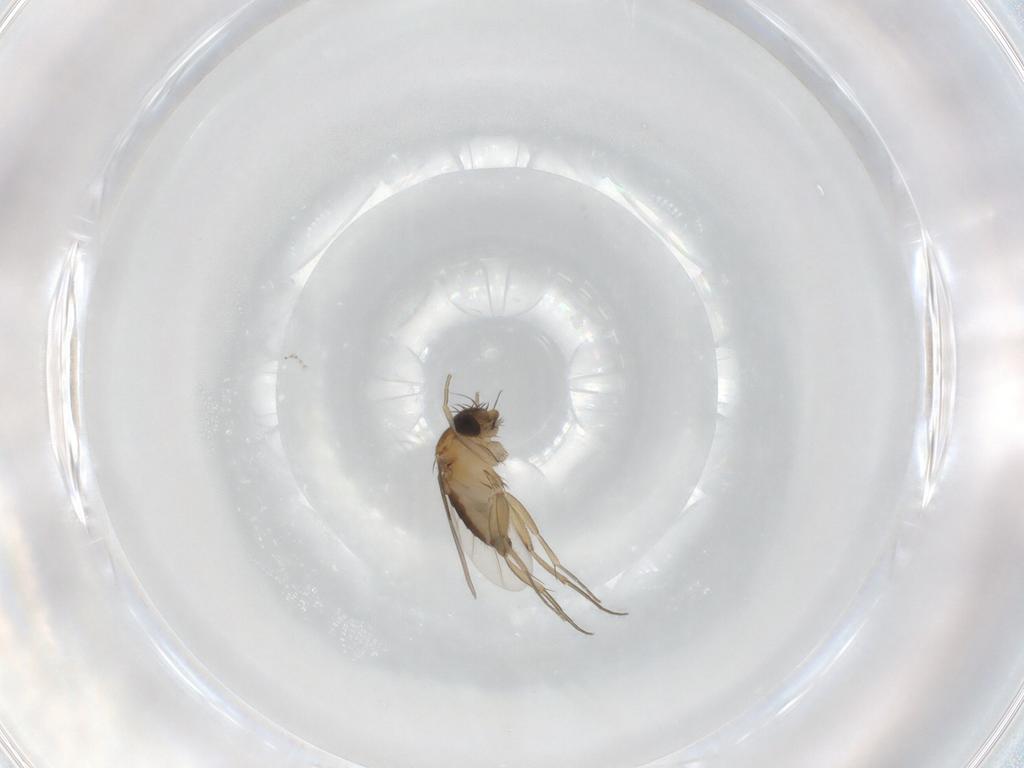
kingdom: Animalia
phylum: Arthropoda
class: Insecta
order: Diptera
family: Phoridae
